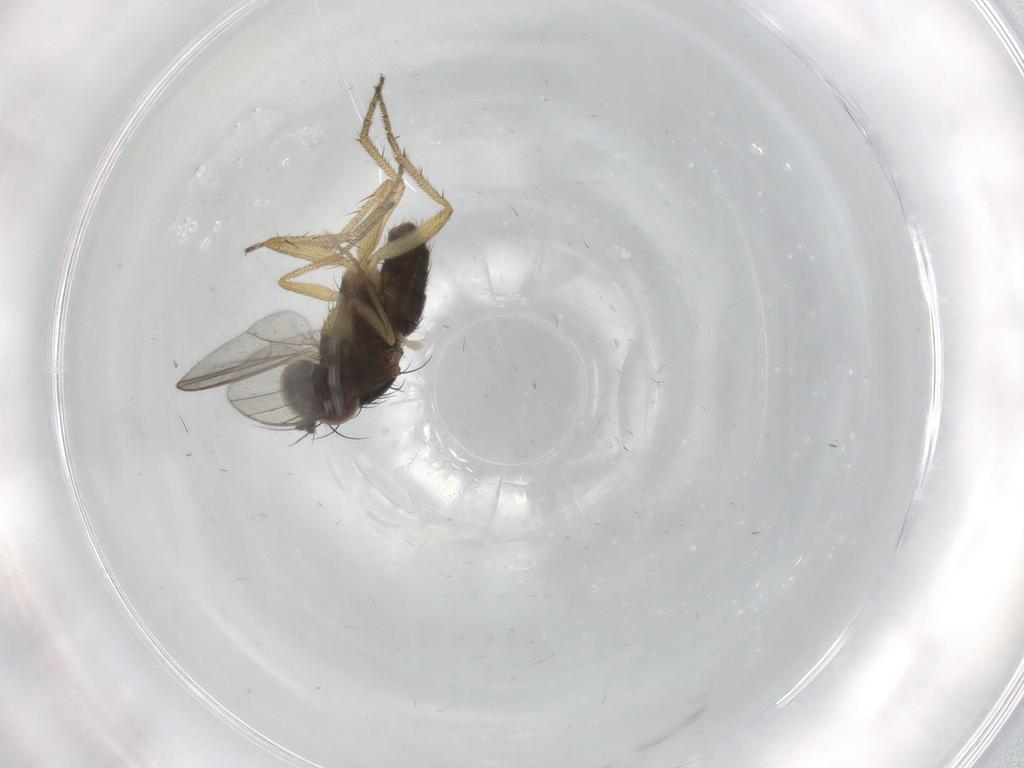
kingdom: Animalia
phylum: Arthropoda
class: Insecta
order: Diptera
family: Dolichopodidae
